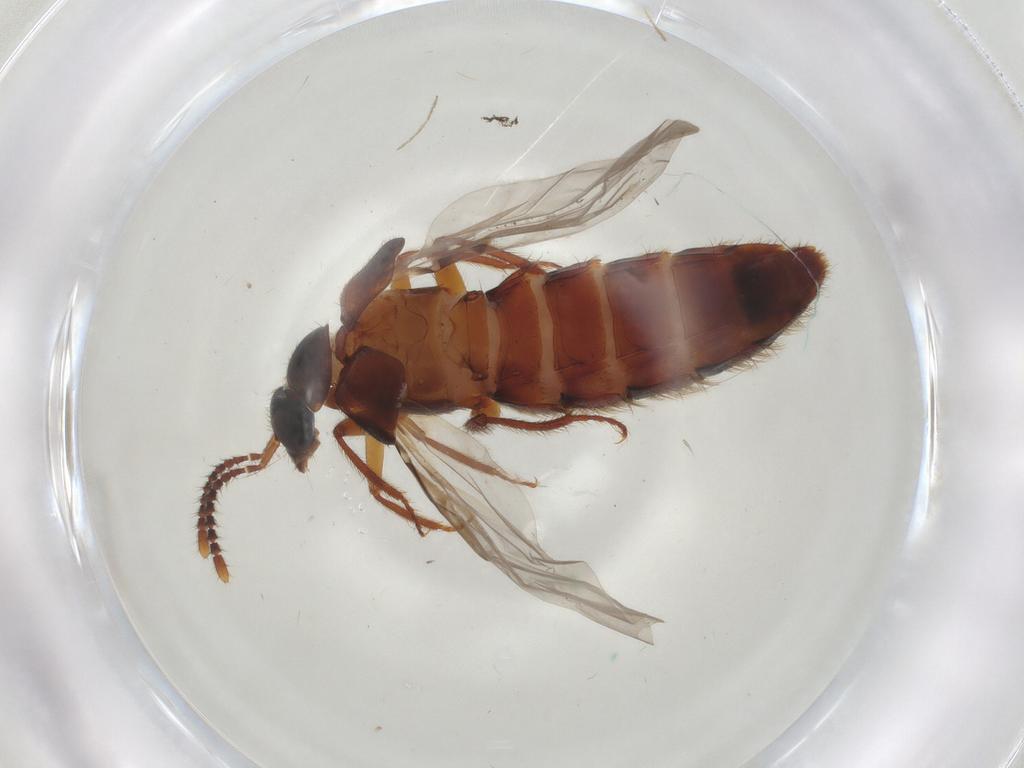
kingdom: Animalia
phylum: Arthropoda
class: Insecta
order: Coleoptera
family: Staphylinidae
